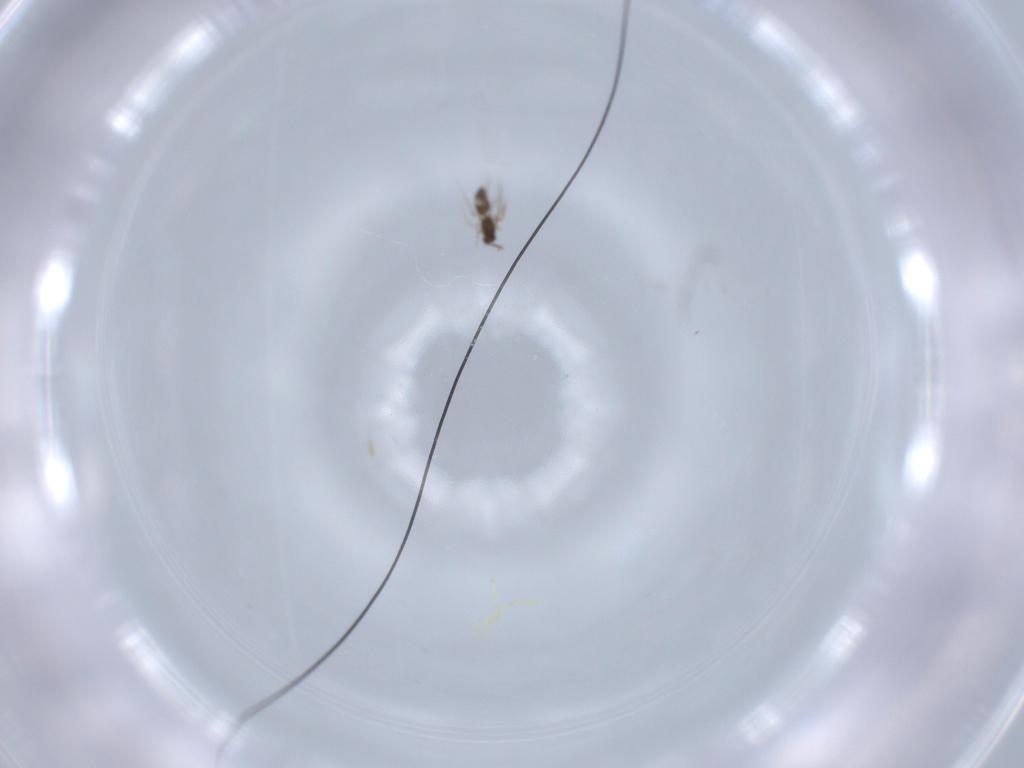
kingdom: Animalia
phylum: Arthropoda
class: Insecta
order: Hymenoptera
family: Mymaridae
